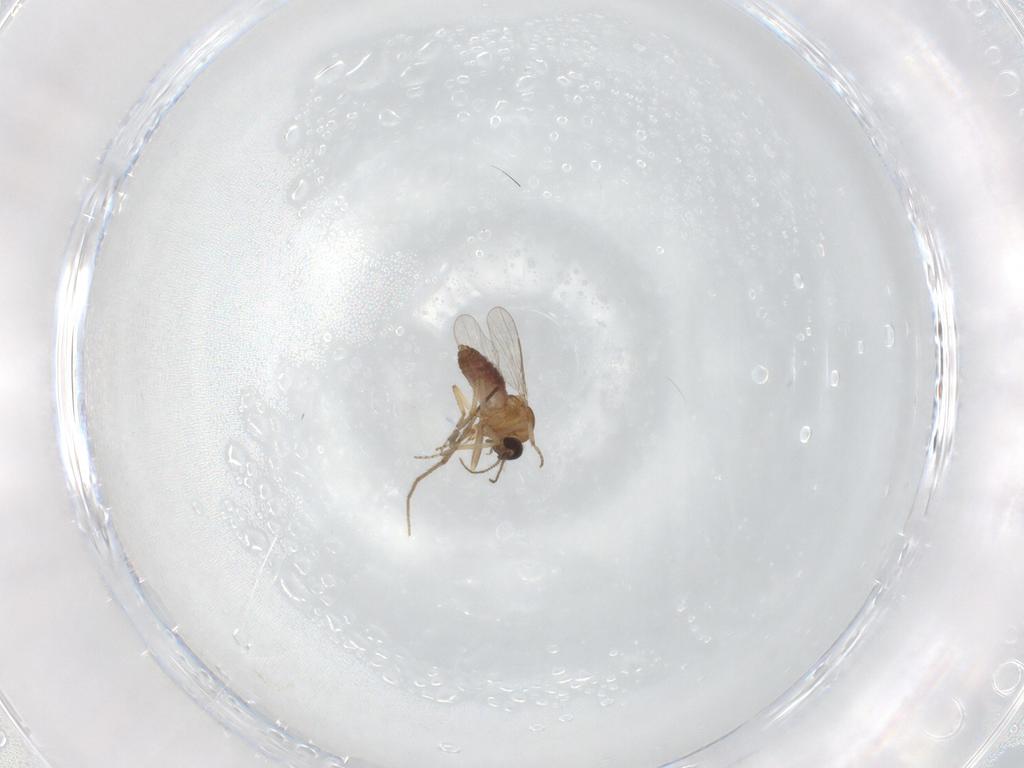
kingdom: Animalia
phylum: Arthropoda
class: Insecta
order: Diptera
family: Chironomidae
